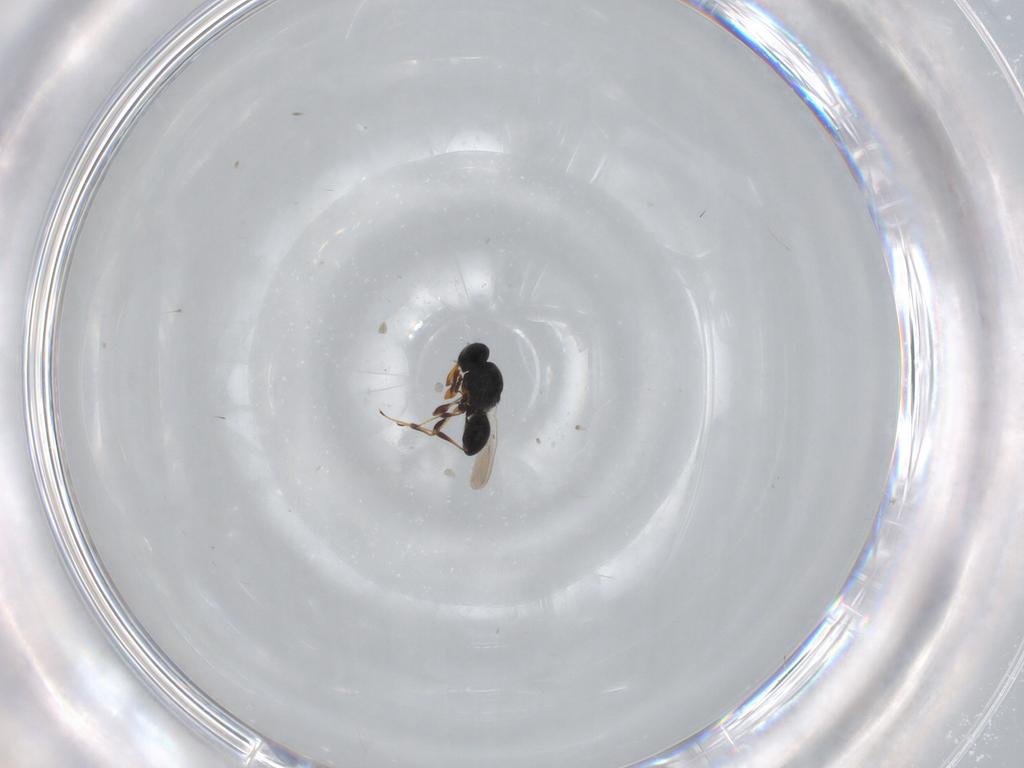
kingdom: Animalia
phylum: Arthropoda
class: Insecta
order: Hymenoptera
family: Platygastridae
